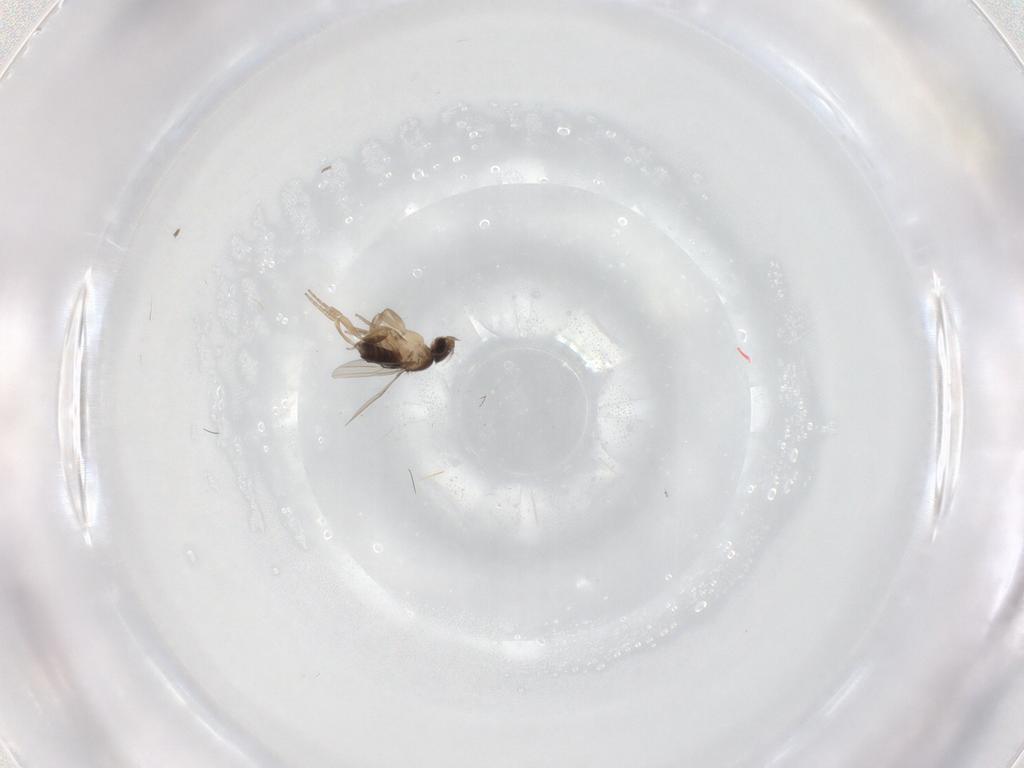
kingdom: Animalia
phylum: Arthropoda
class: Insecta
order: Diptera
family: Phoridae
